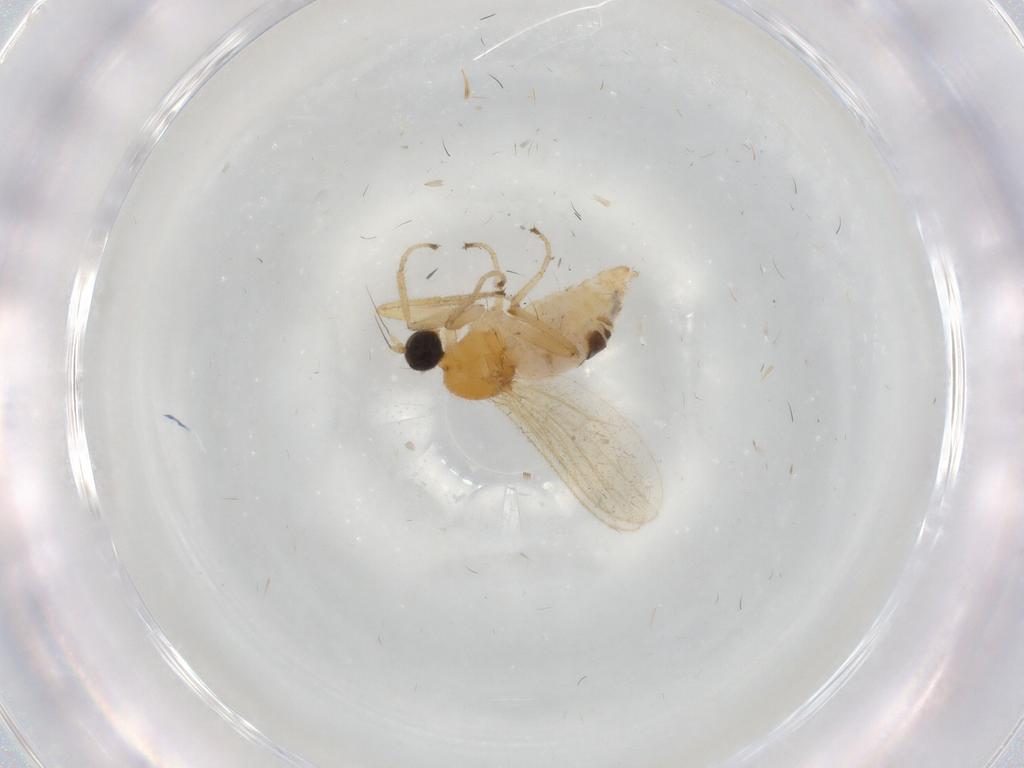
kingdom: Animalia
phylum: Arthropoda
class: Insecta
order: Diptera
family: Hybotidae
